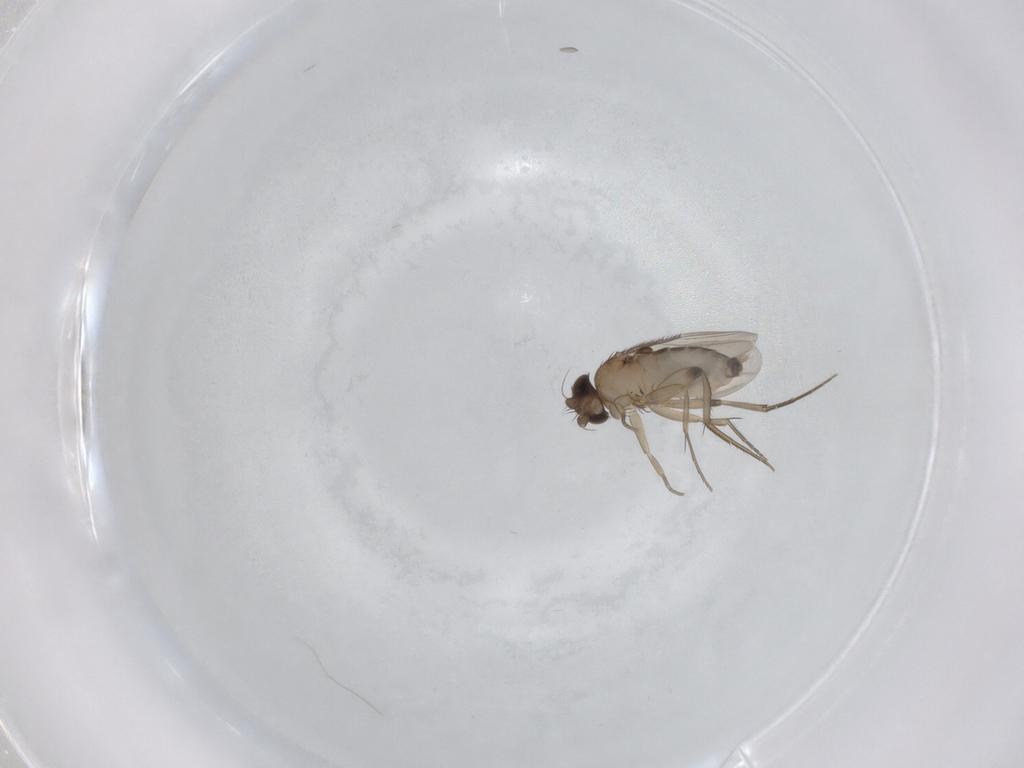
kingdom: Animalia
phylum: Arthropoda
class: Insecta
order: Diptera
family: Phoridae
